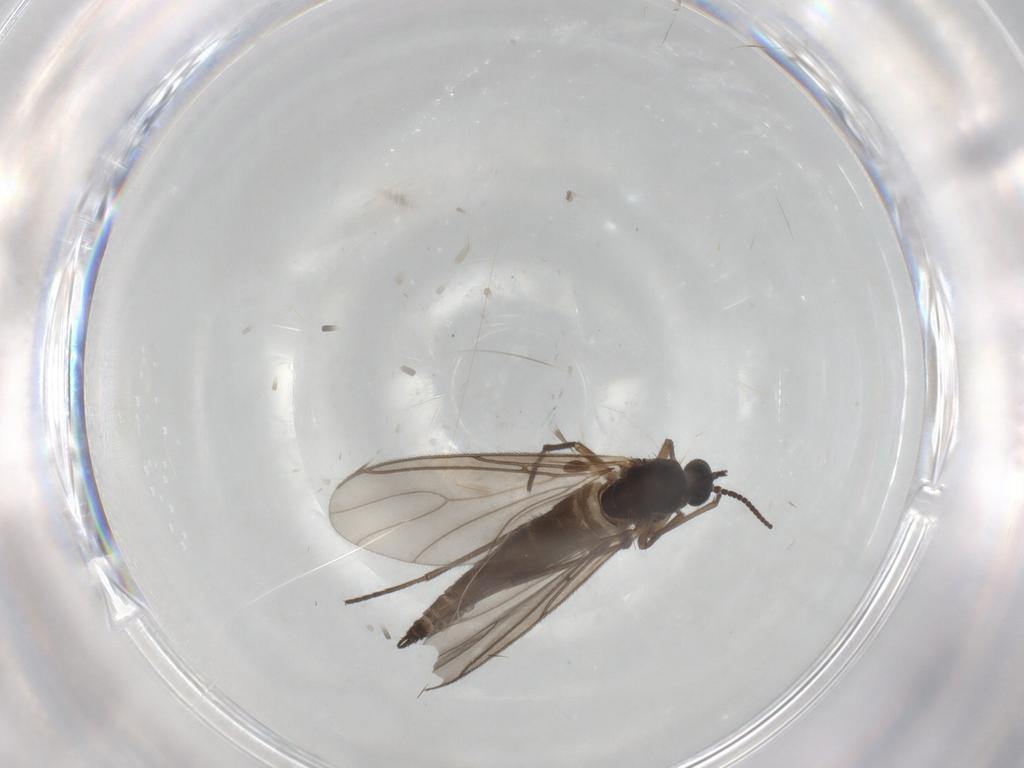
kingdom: Animalia
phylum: Arthropoda
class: Insecta
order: Diptera
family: Sciaridae
